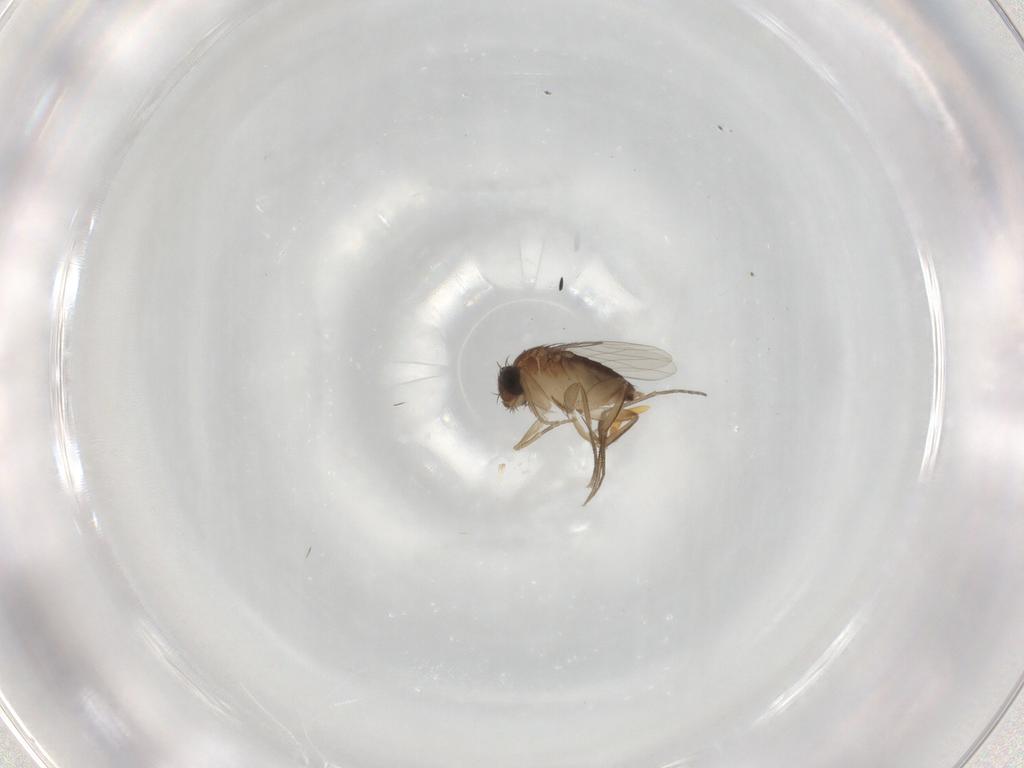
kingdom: Animalia
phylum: Arthropoda
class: Insecta
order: Diptera
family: Phoridae
